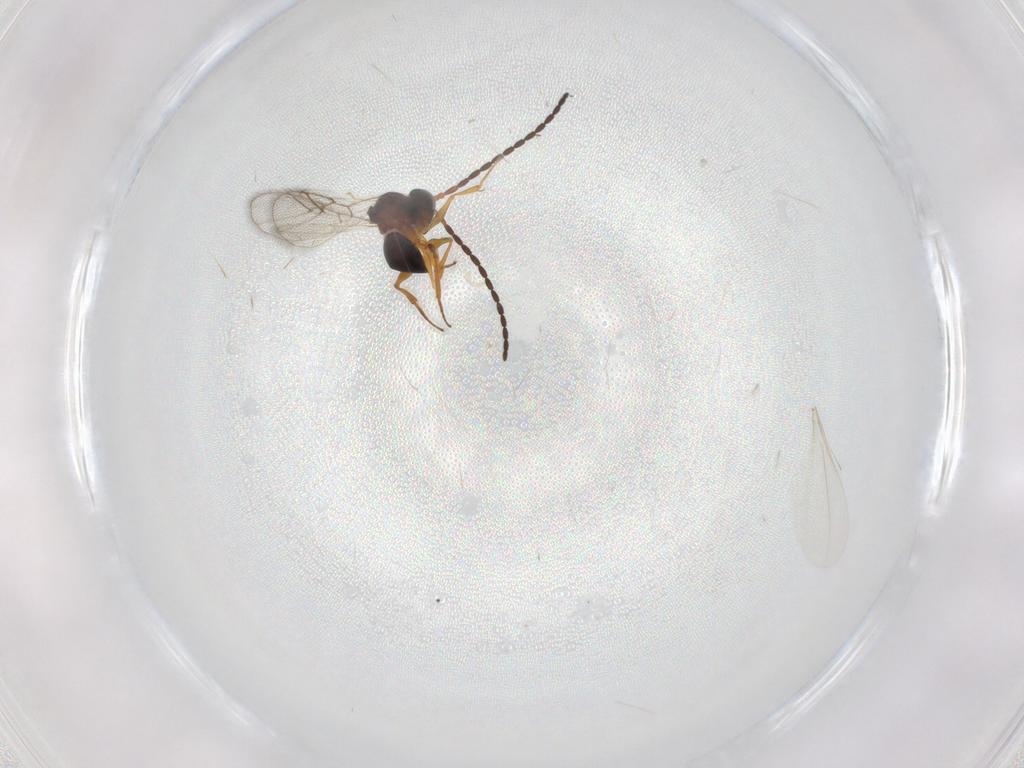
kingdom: Animalia
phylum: Arthropoda
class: Insecta
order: Hymenoptera
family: Figitidae
